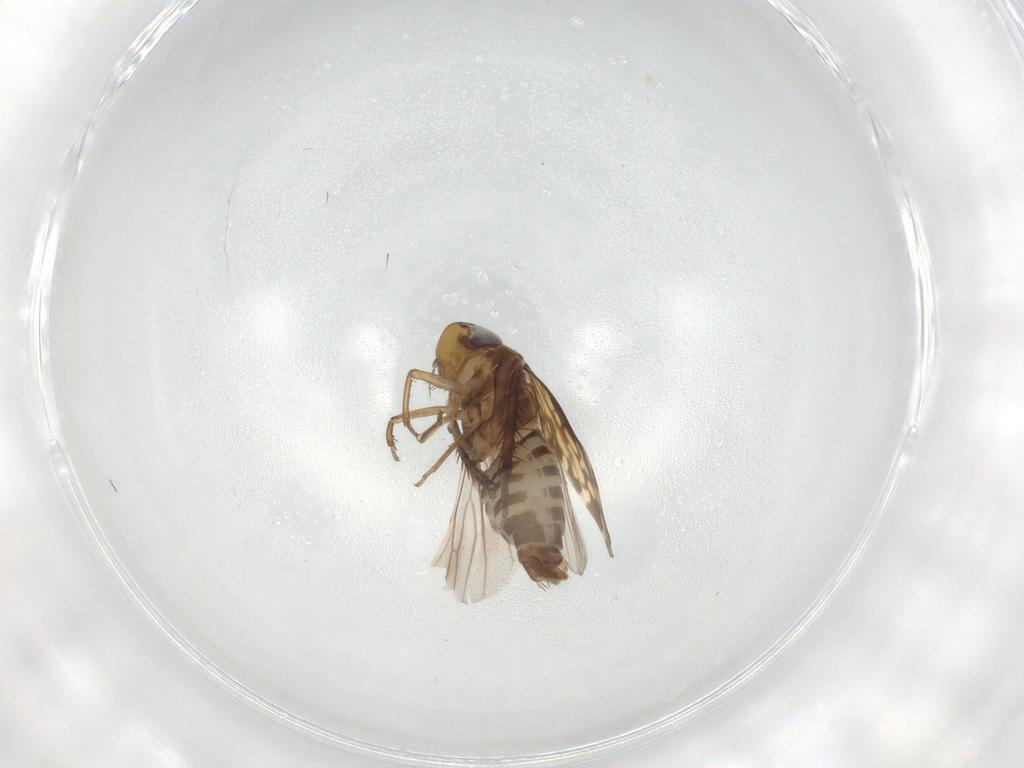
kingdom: Animalia
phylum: Arthropoda
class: Insecta
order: Hemiptera
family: Cicadellidae
